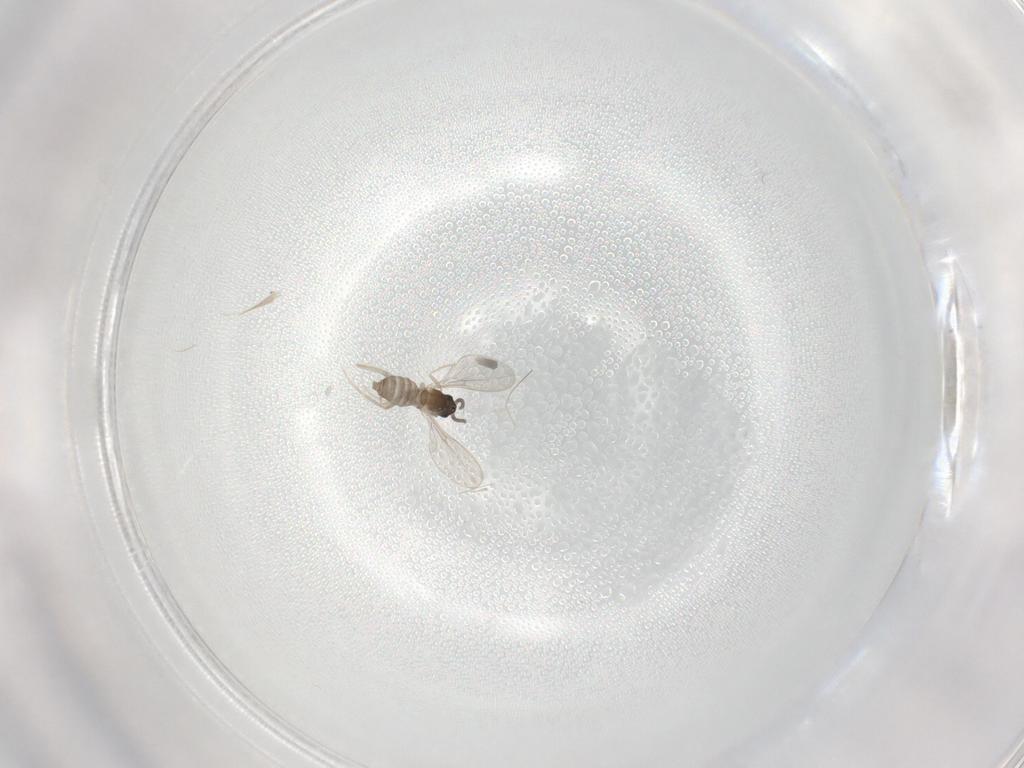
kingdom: Animalia
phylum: Arthropoda
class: Insecta
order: Diptera
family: Cecidomyiidae
